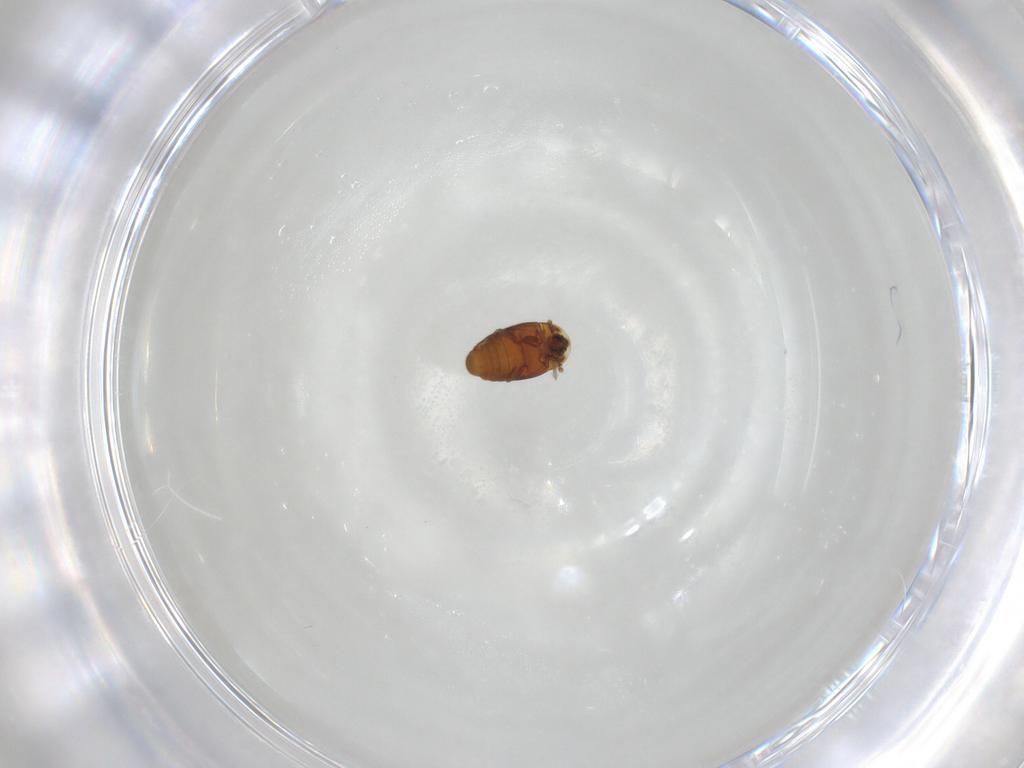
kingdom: Animalia
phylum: Arthropoda
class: Insecta
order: Coleoptera
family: Corylophidae
